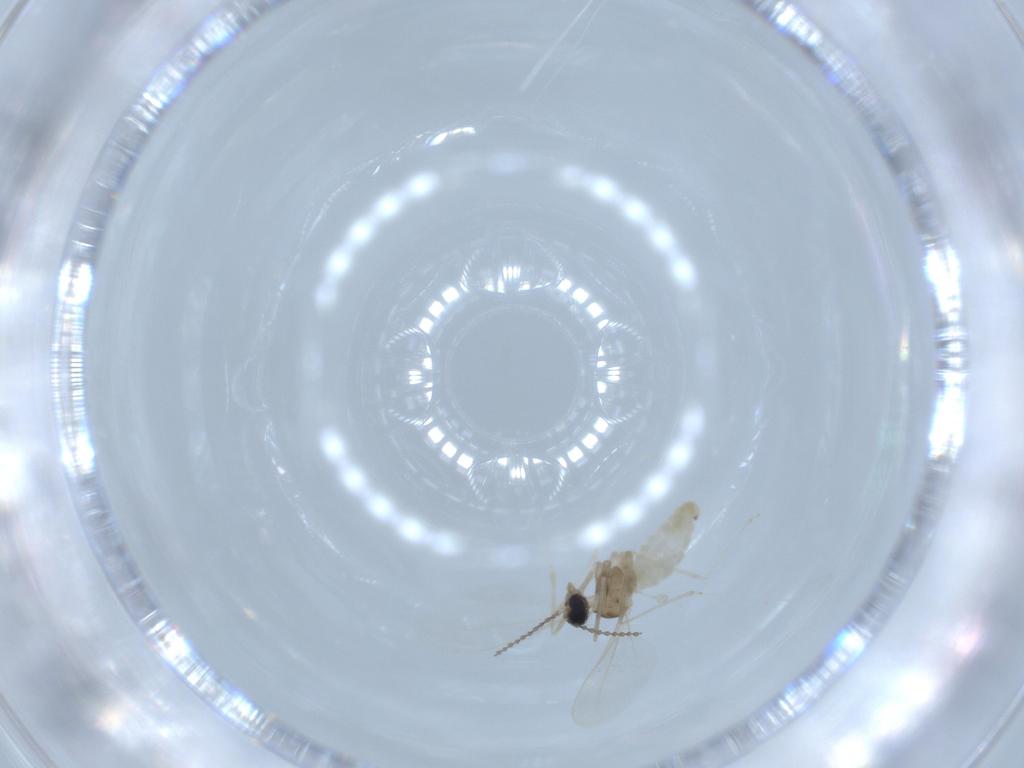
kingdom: Animalia
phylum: Arthropoda
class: Insecta
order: Diptera
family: Cecidomyiidae
